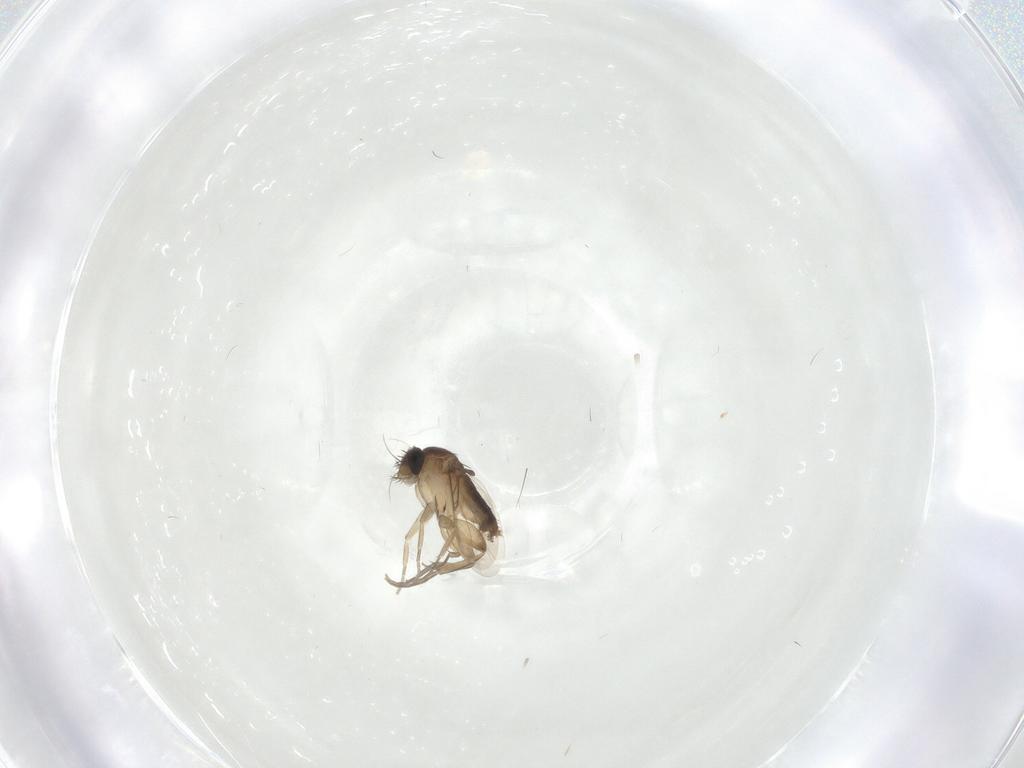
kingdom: Animalia
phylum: Arthropoda
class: Insecta
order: Diptera
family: Phoridae
